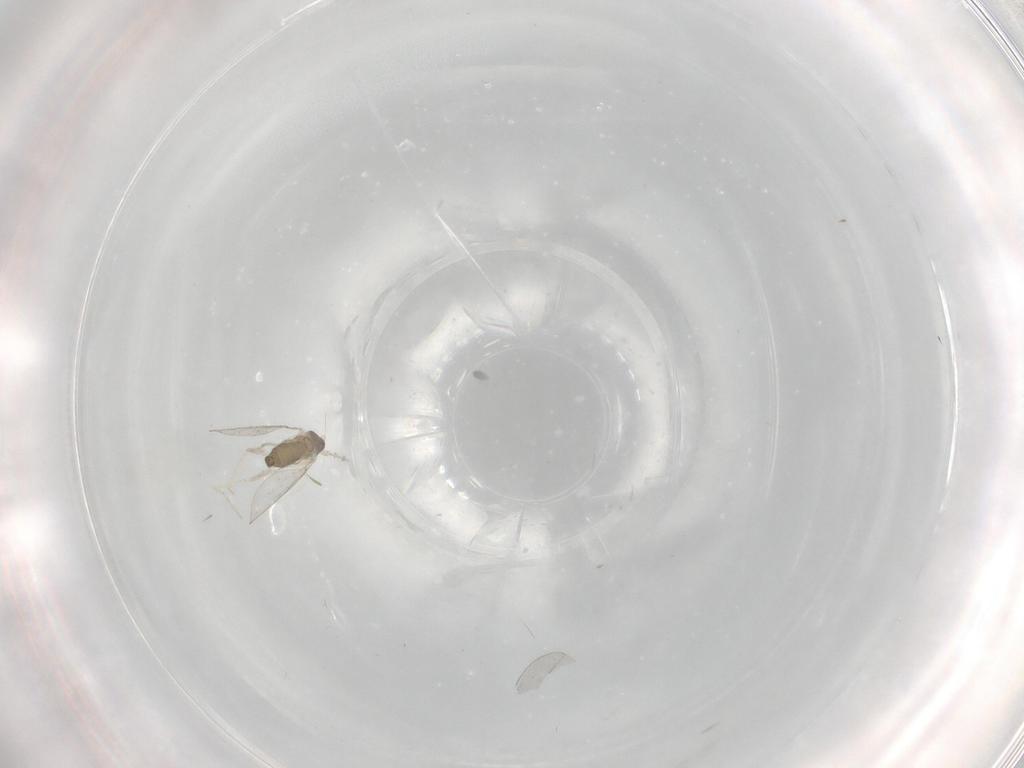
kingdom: Animalia
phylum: Arthropoda
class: Insecta
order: Diptera
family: Cecidomyiidae
